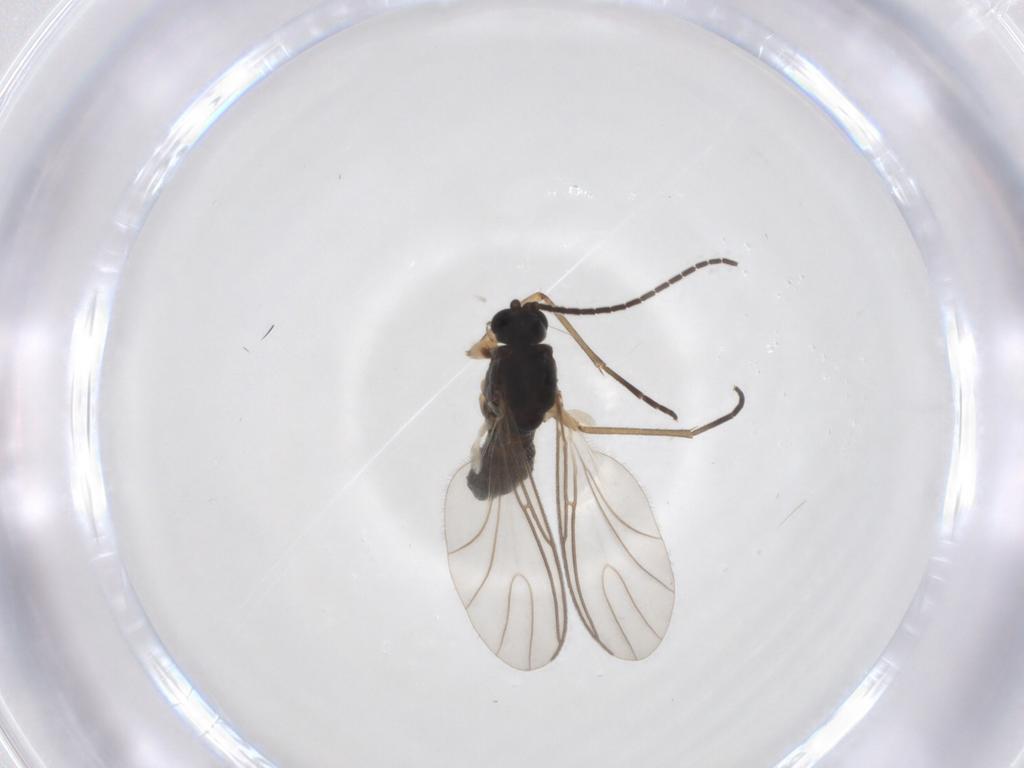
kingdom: Animalia
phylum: Arthropoda
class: Insecta
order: Diptera
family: Sciaridae
